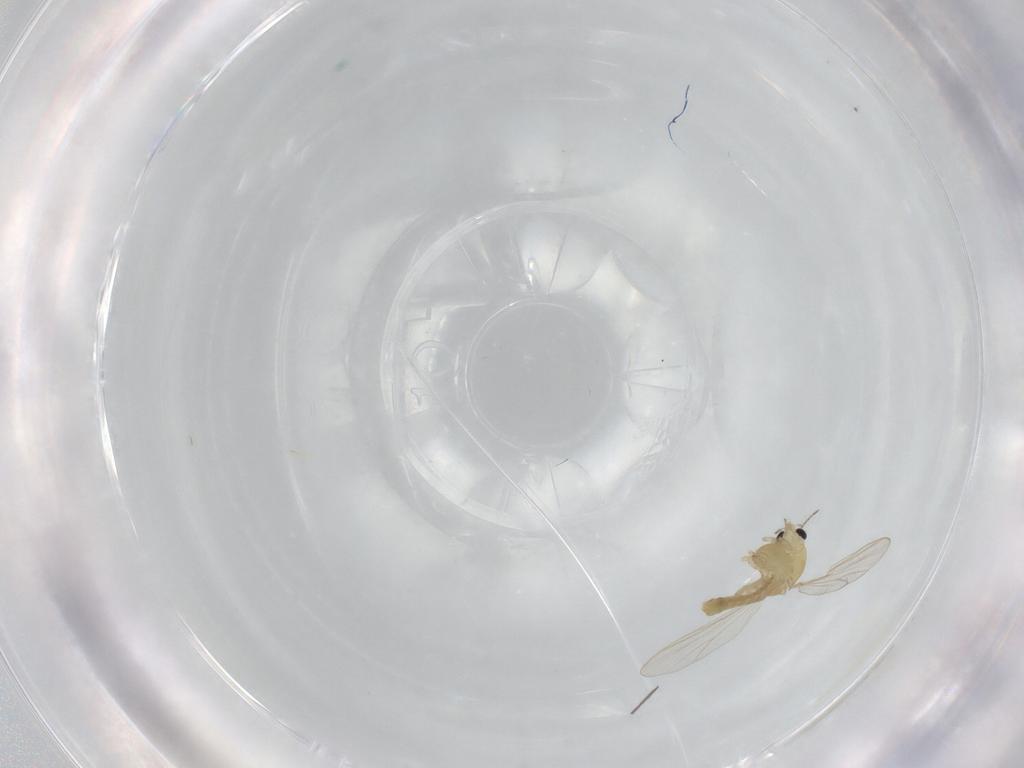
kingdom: Animalia
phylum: Arthropoda
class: Insecta
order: Diptera
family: Ceratopogonidae
